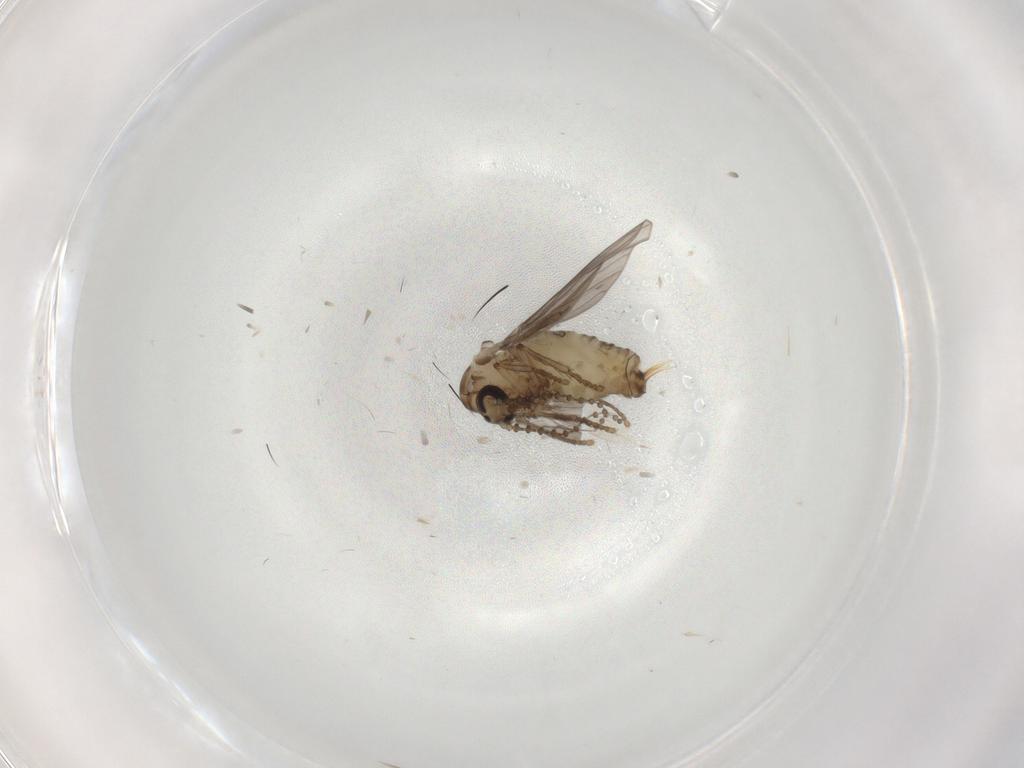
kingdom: Animalia
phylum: Arthropoda
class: Insecta
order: Diptera
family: Psychodidae
